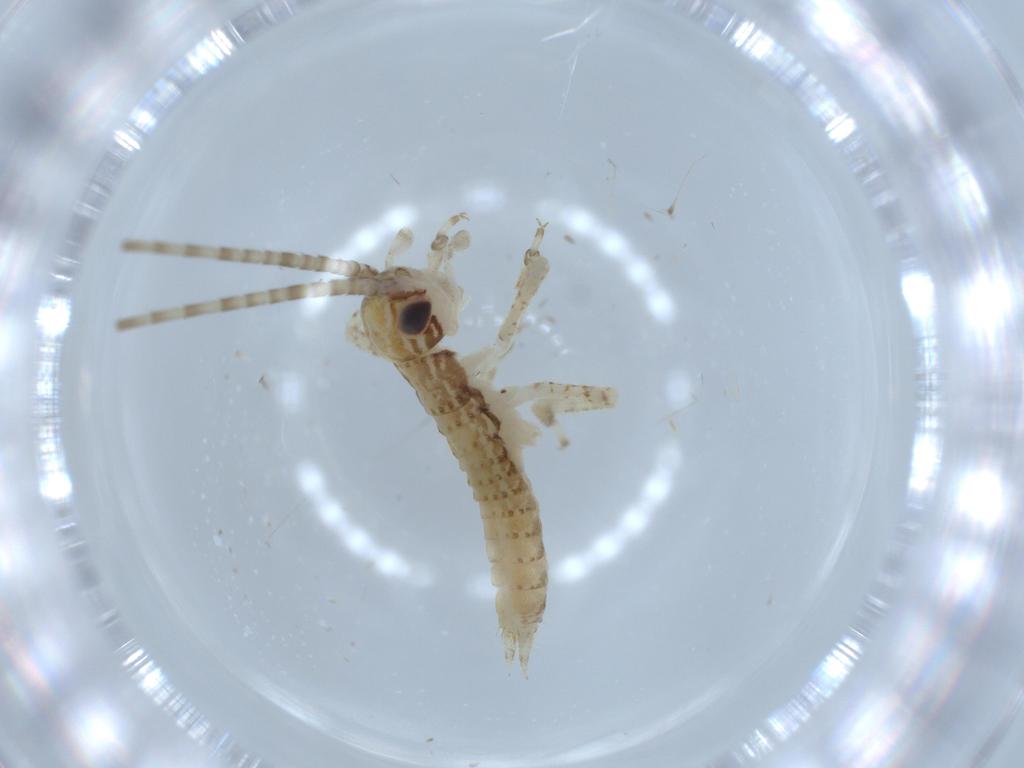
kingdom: Animalia
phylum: Arthropoda
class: Insecta
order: Orthoptera
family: Gryllidae
